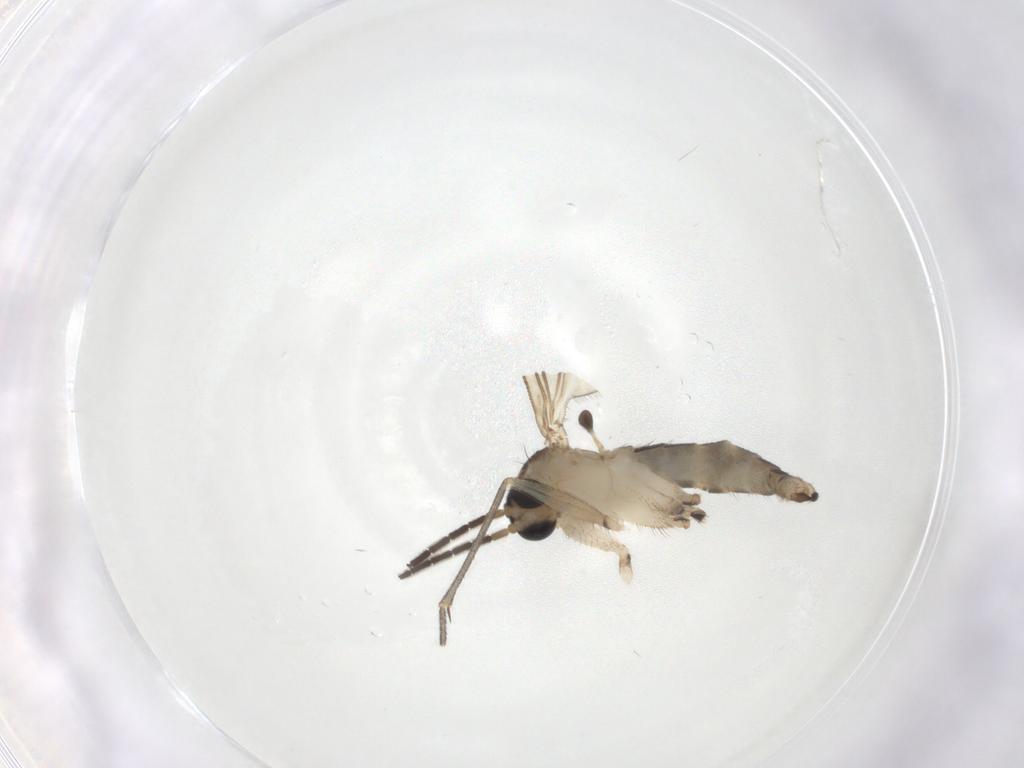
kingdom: Animalia
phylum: Arthropoda
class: Insecta
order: Diptera
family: Sciaridae
